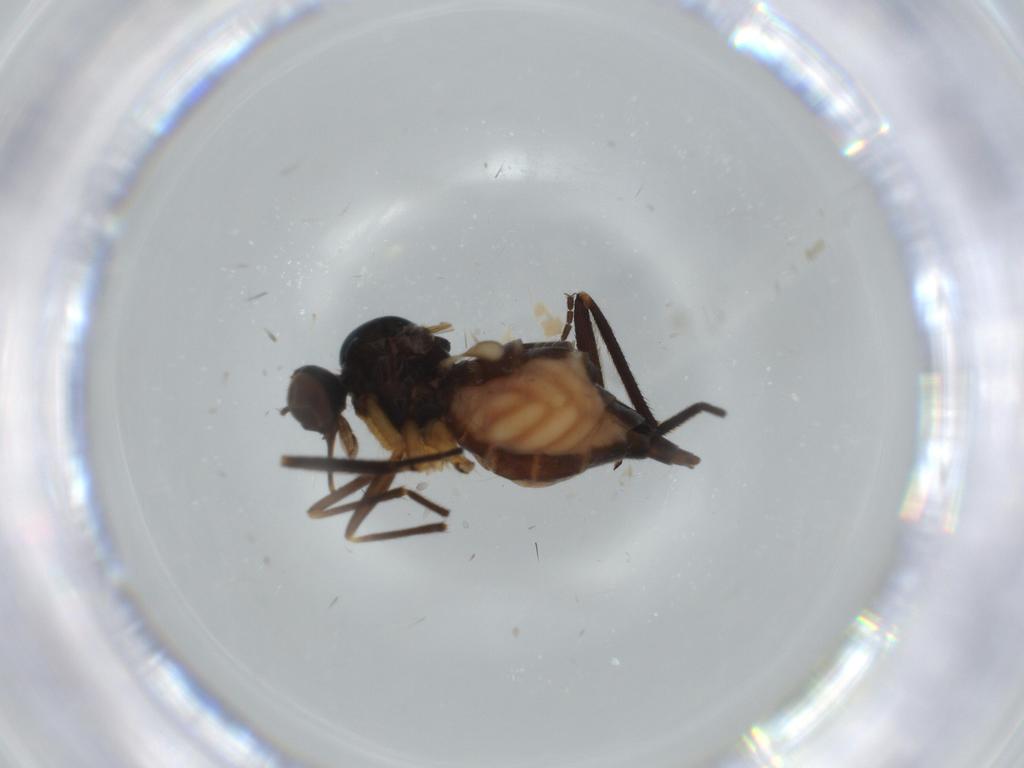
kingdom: Animalia
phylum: Arthropoda
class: Insecta
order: Diptera
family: Empididae
